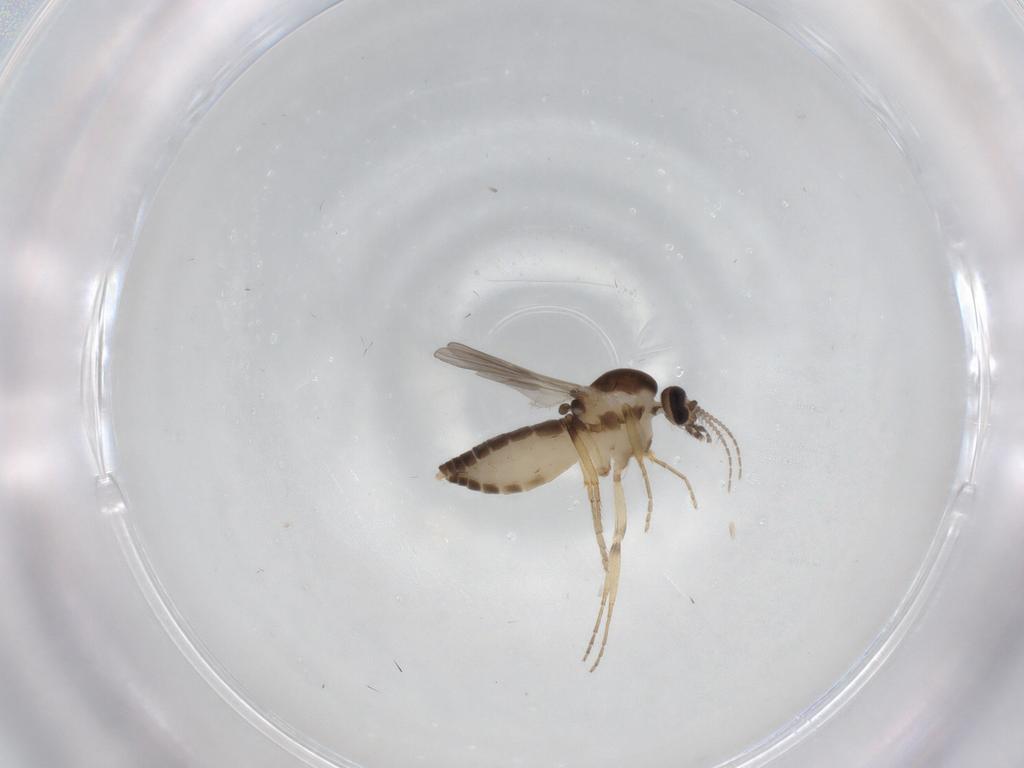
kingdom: Animalia
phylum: Arthropoda
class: Insecta
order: Diptera
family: Ceratopogonidae
